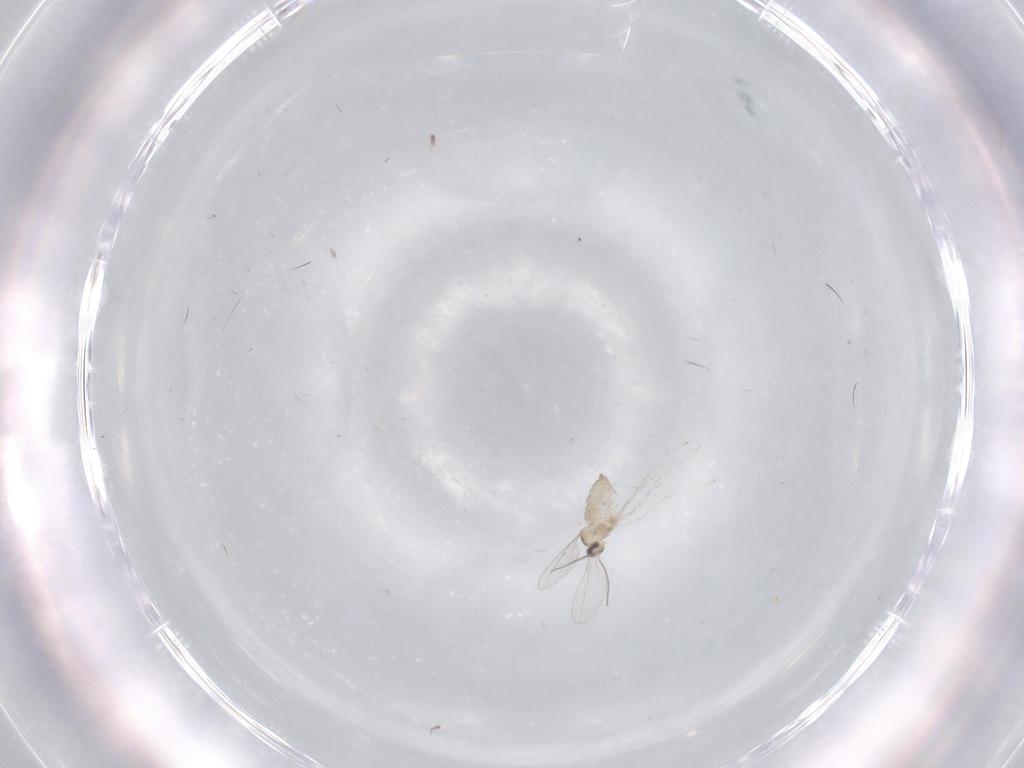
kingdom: Animalia
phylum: Arthropoda
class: Insecta
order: Diptera
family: Cecidomyiidae
